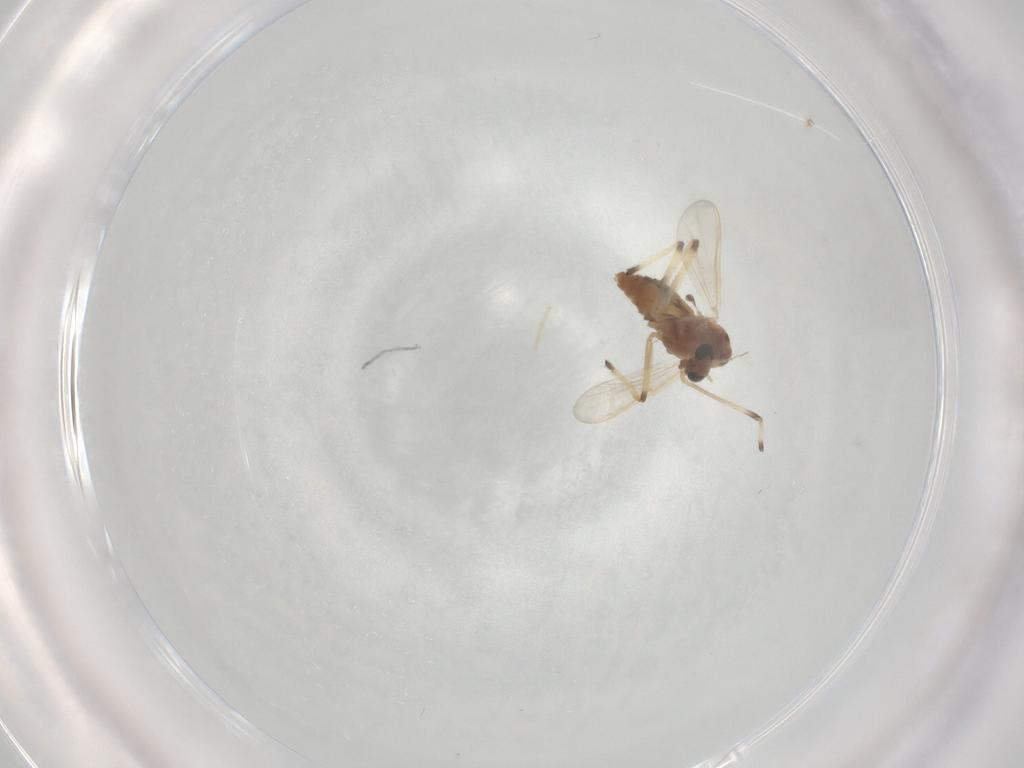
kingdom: Animalia
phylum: Arthropoda
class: Insecta
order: Diptera
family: Chironomidae
